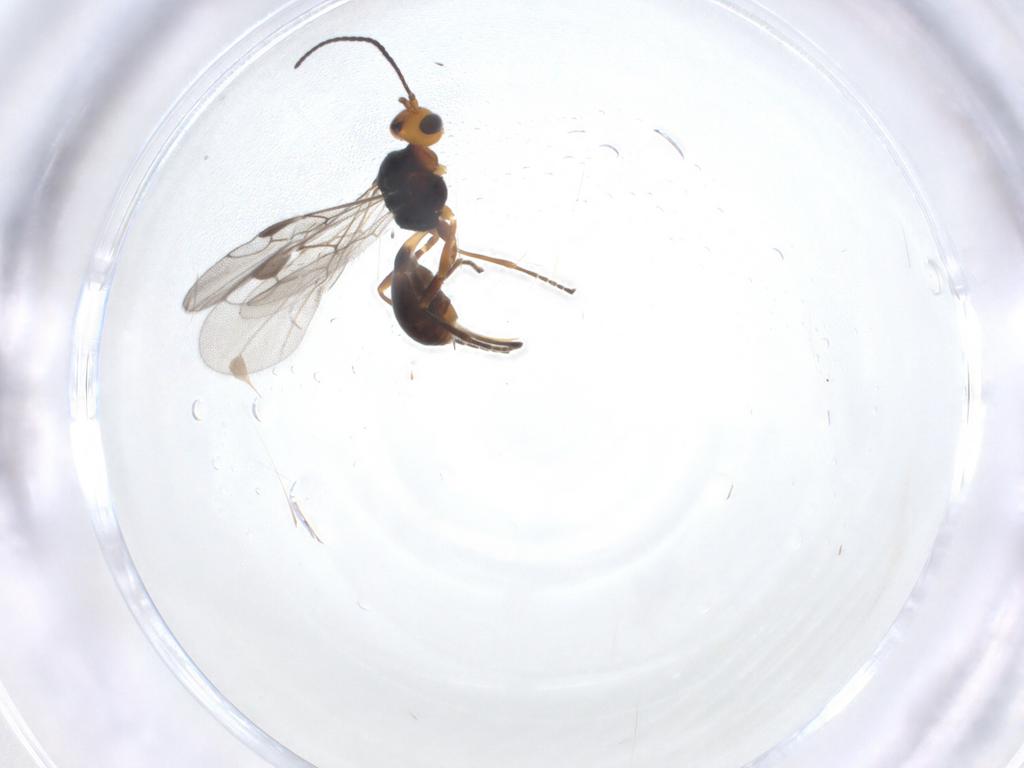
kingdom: Animalia
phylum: Arthropoda
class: Insecta
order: Hymenoptera
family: Braconidae
